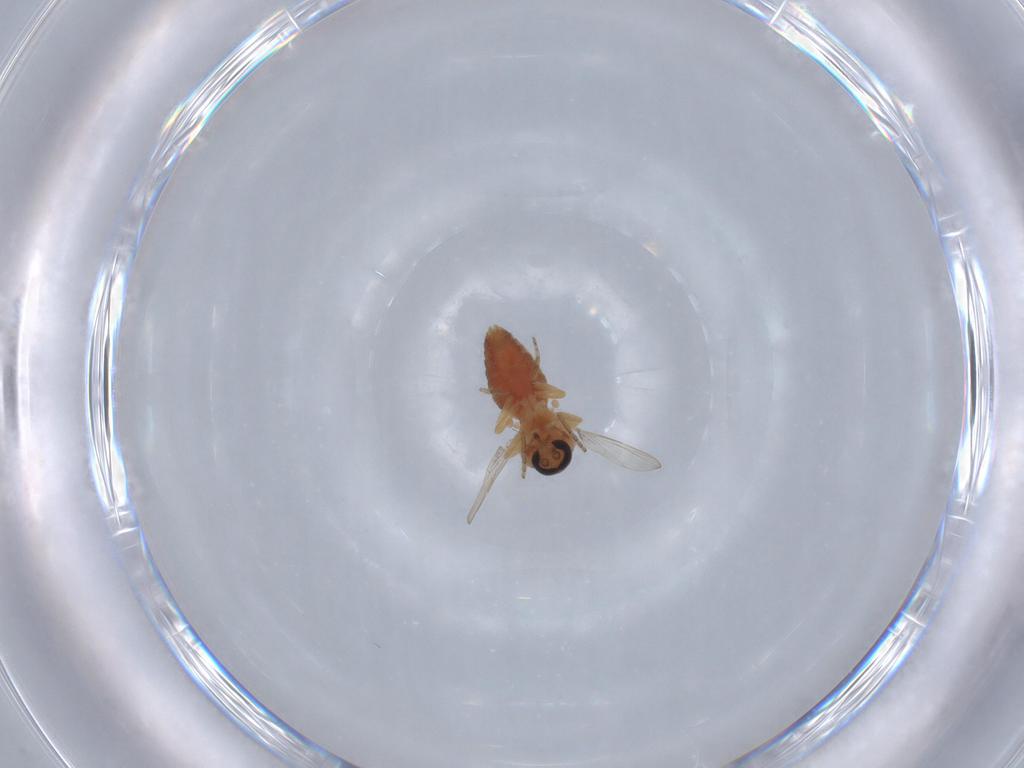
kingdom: Animalia
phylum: Arthropoda
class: Insecta
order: Diptera
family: Ceratopogonidae
